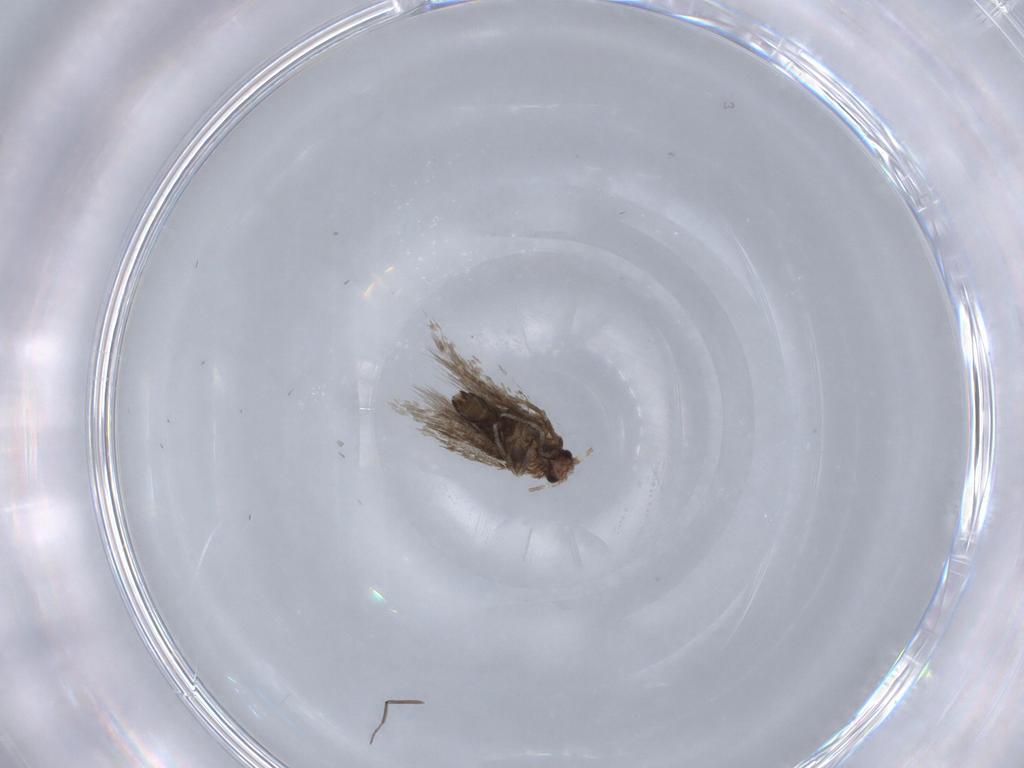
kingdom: Animalia
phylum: Arthropoda
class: Insecta
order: Lepidoptera
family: Nepticulidae
